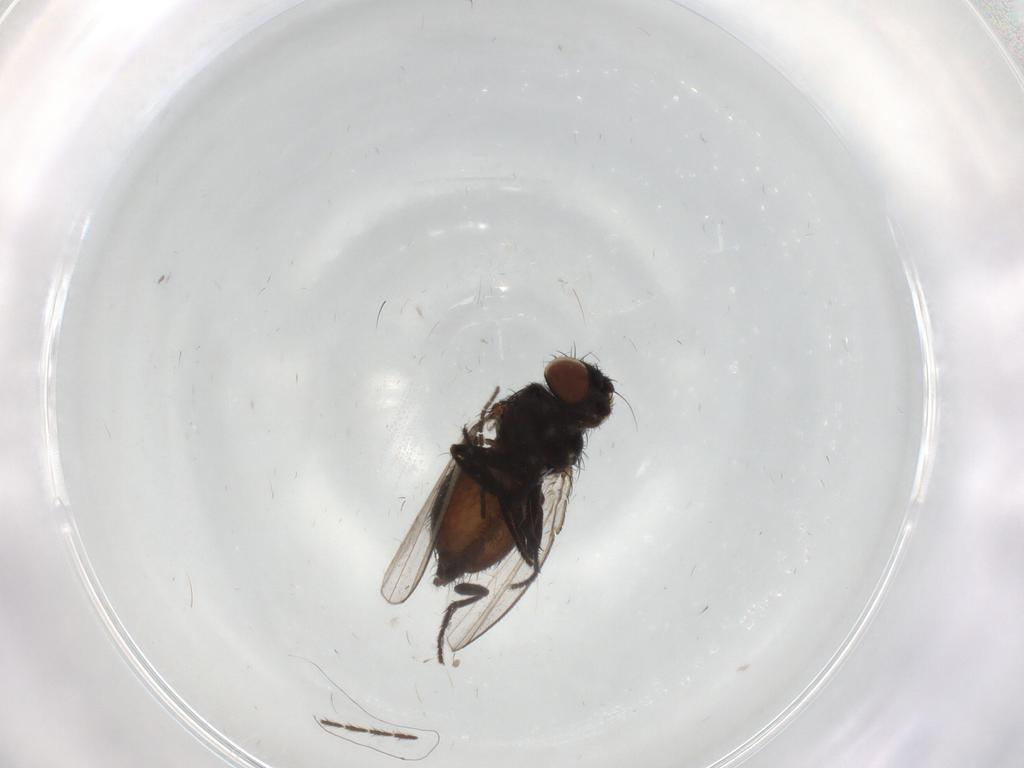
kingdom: Animalia
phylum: Arthropoda
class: Insecta
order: Diptera
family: Milichiidae
